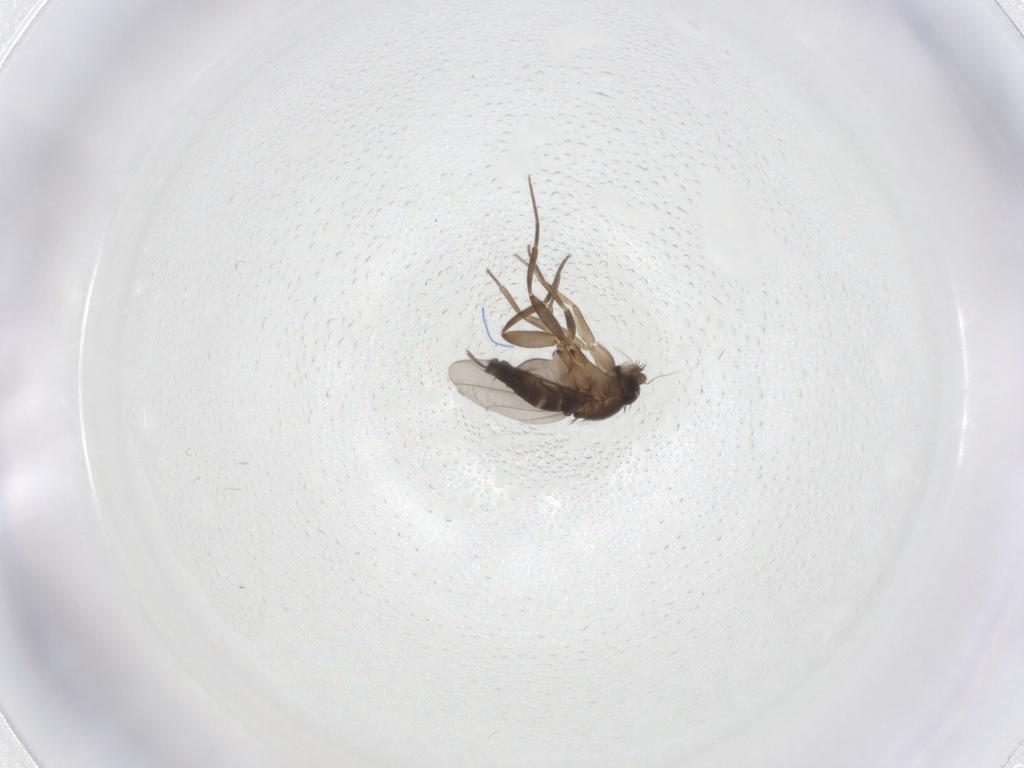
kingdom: Animalia
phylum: Arthropoda
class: Insecta
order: Diptera
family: Phoridae
